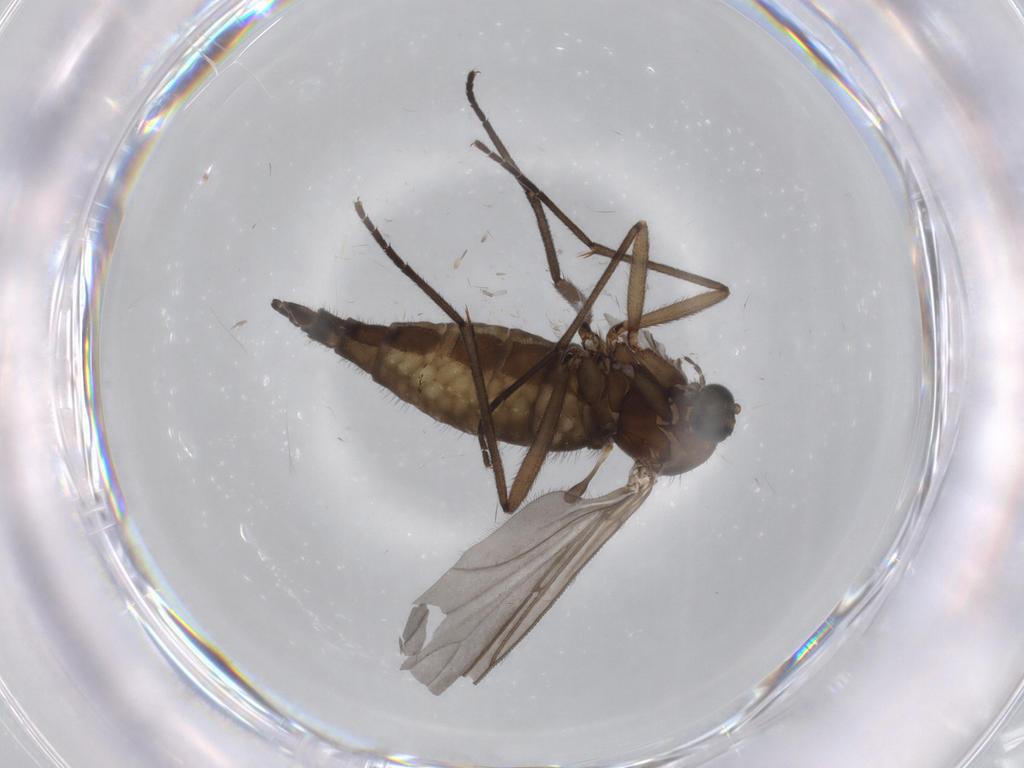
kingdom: Animalia
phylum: Arthropoda
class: Insecta
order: Diptera
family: Sciaridae
